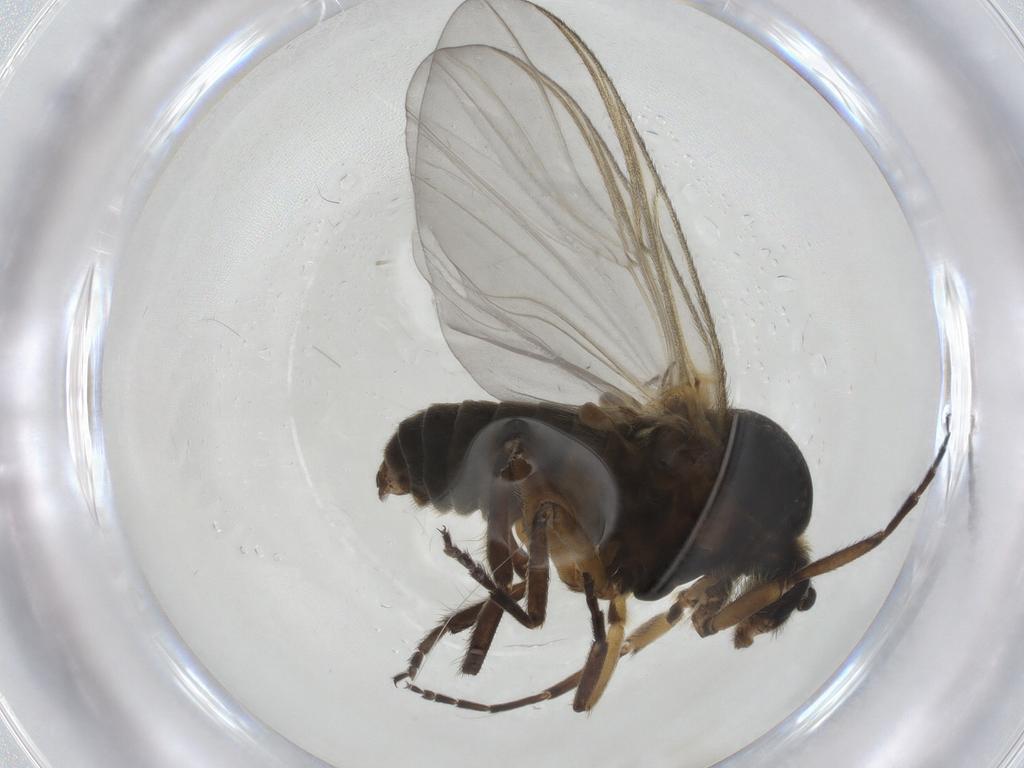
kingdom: Animalia
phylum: Arthropoda
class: Insecta
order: Diptera
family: Simuliidae
